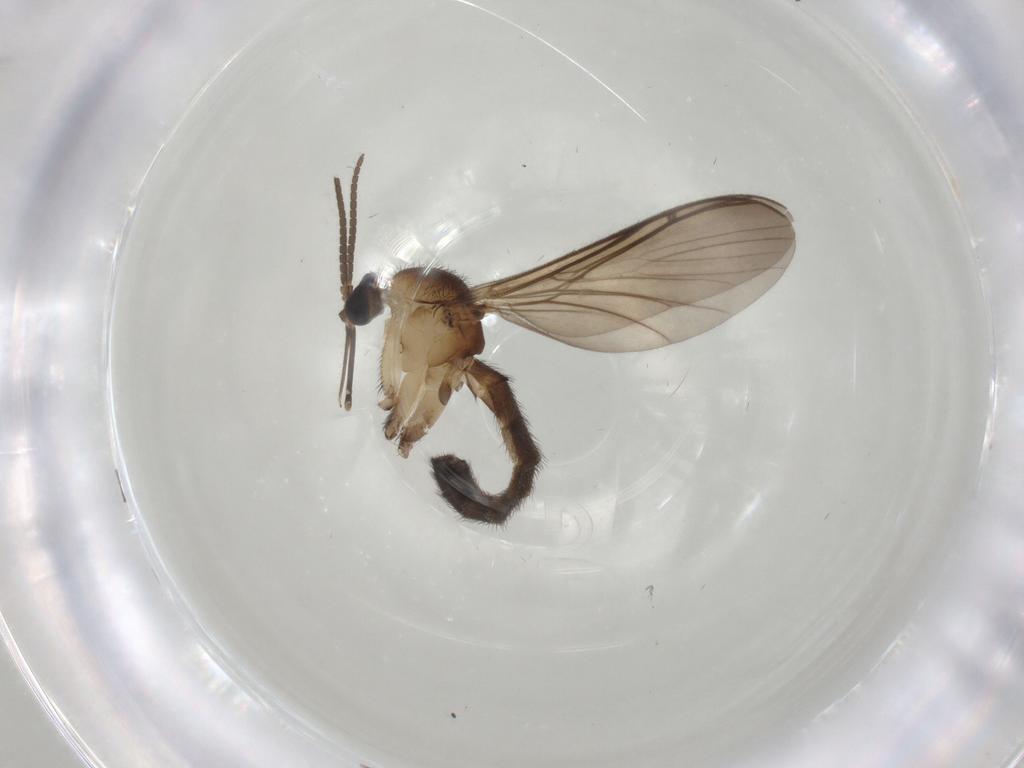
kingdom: Animalia
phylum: Arthropoda
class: Insecta
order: Diptera
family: Keroplatidae
